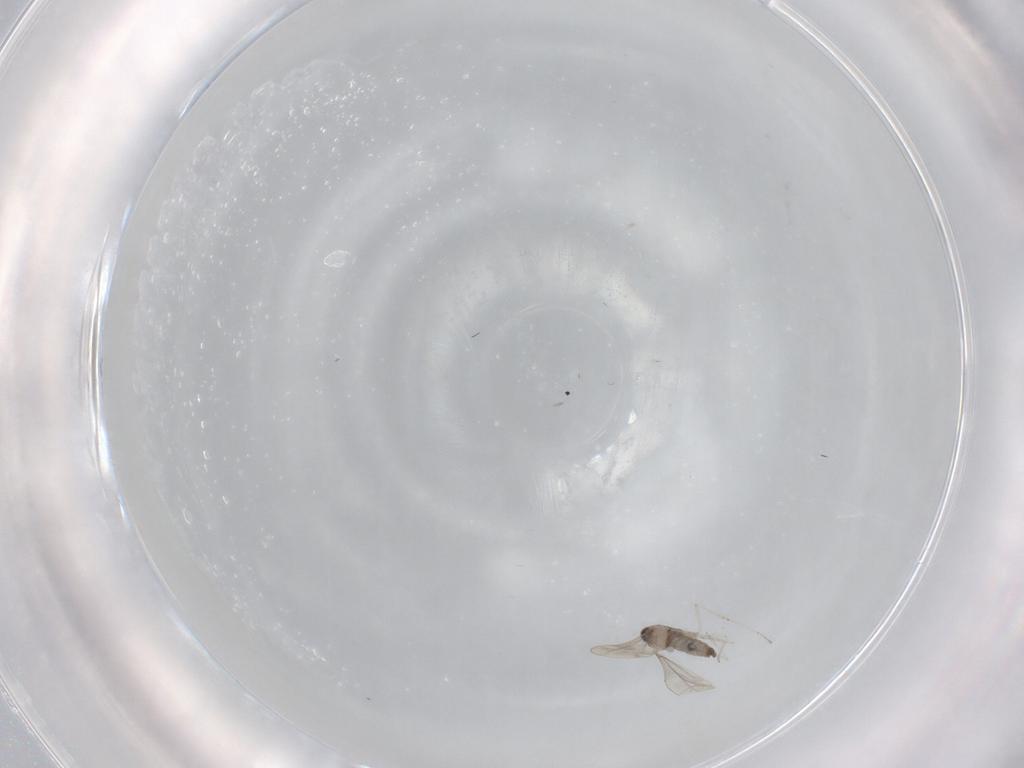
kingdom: Animalia
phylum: Arthropoda
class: Insecta
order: Diptera
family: Cecidomyiidae
